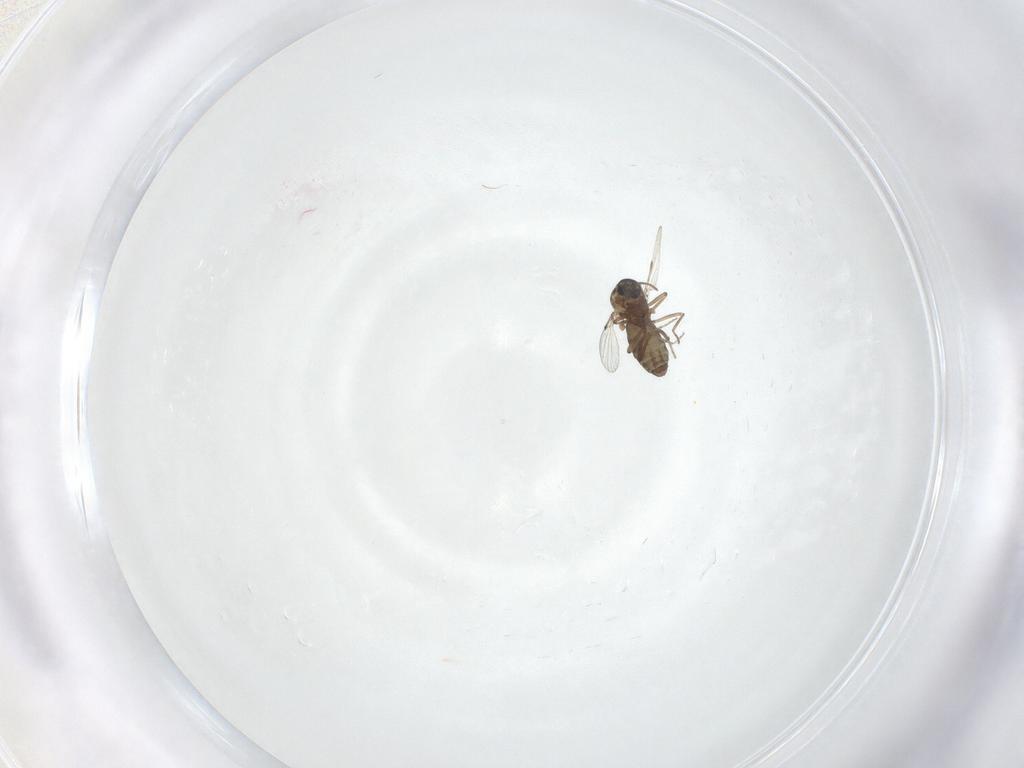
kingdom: Animalia
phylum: Arthropoda
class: Insecta
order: Diptera
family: Ceratopogonidae
